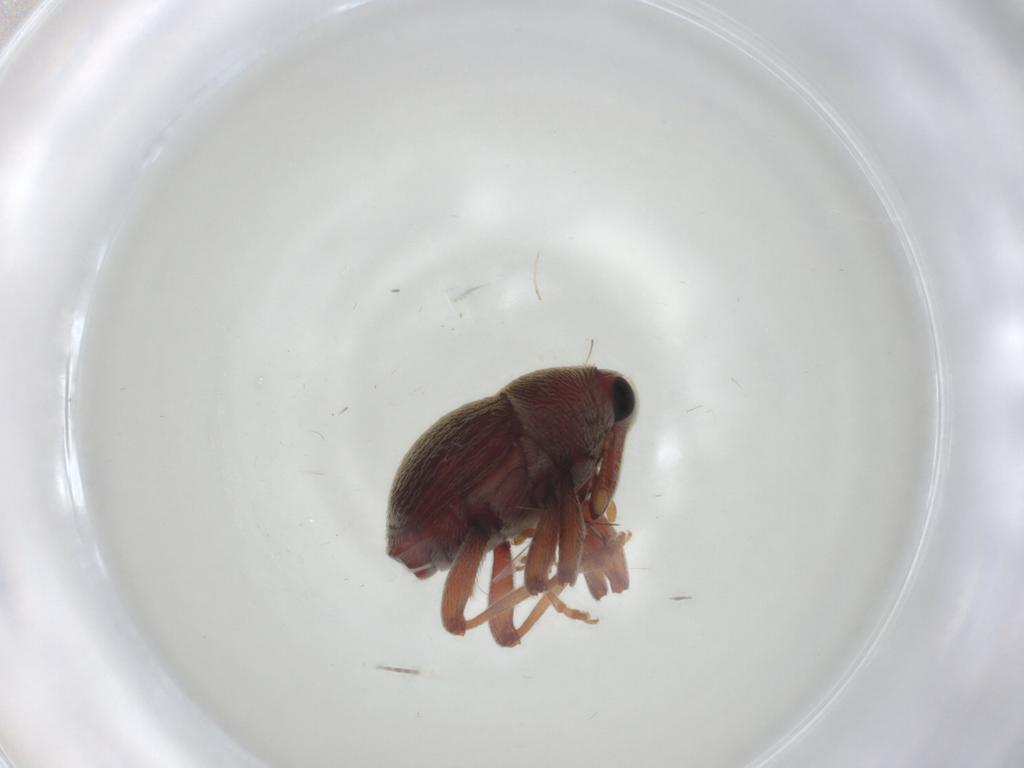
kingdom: Animalia
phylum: Arthropoda
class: Insecta
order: Coleoptera
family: Curculionidae
